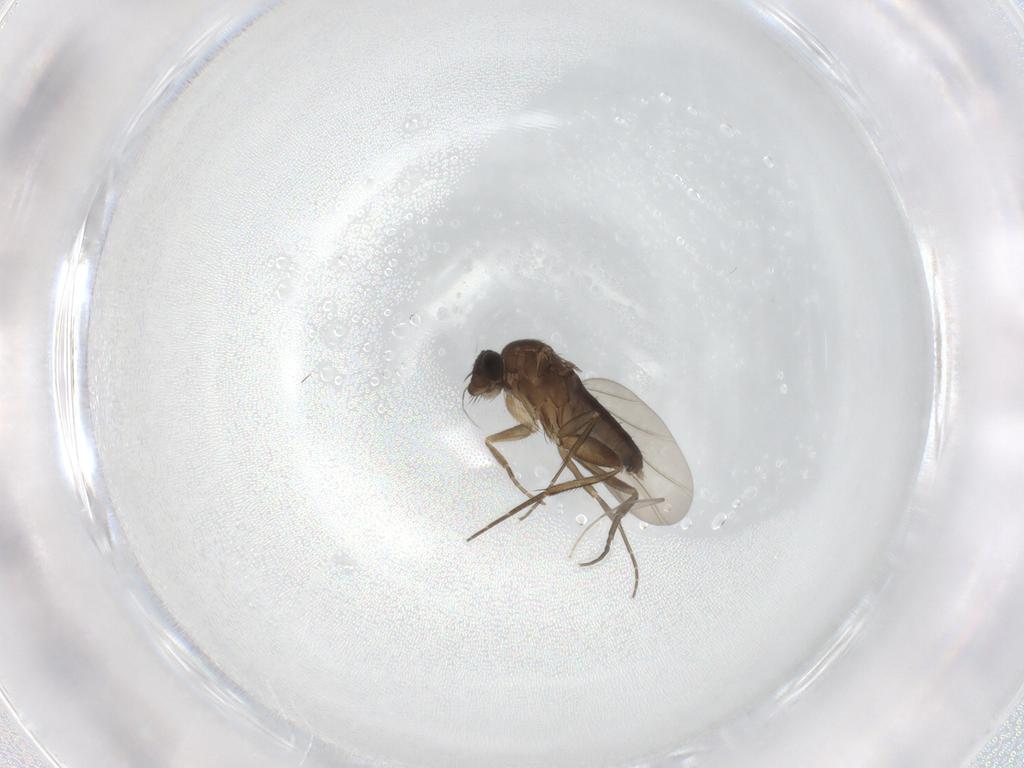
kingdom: Animalia
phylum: Arthropoda
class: Insecta
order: Diptera
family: Phoridae
